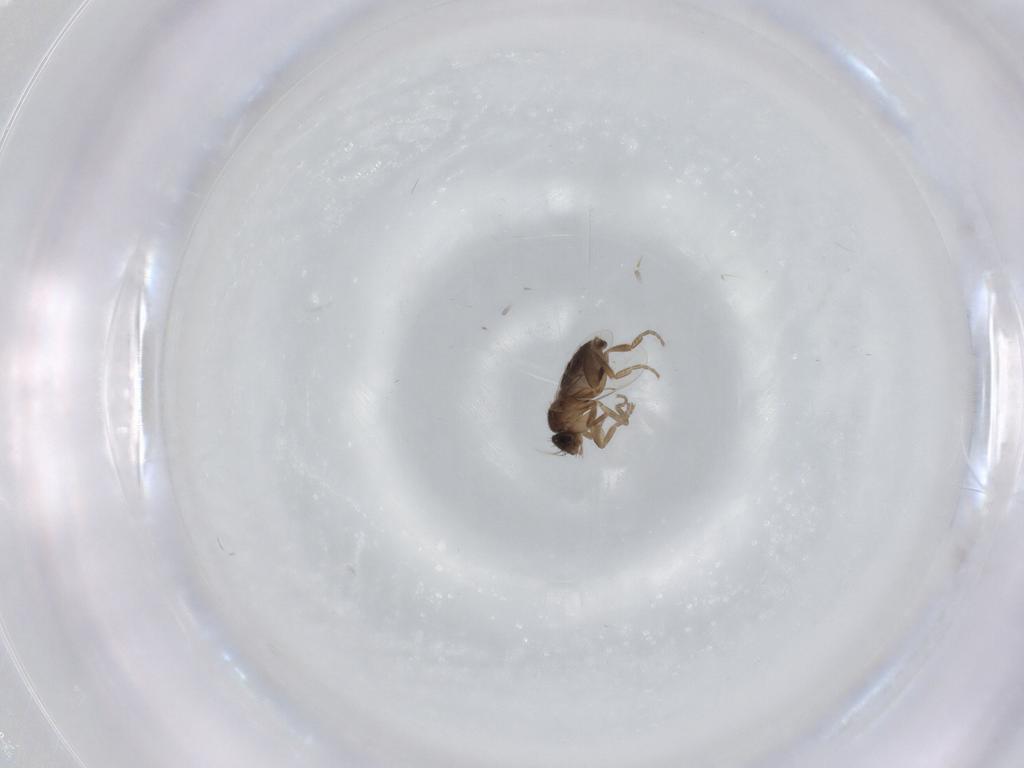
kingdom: Animalia
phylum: Arthropoda
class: Insecta
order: Diptera
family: Phoridae
